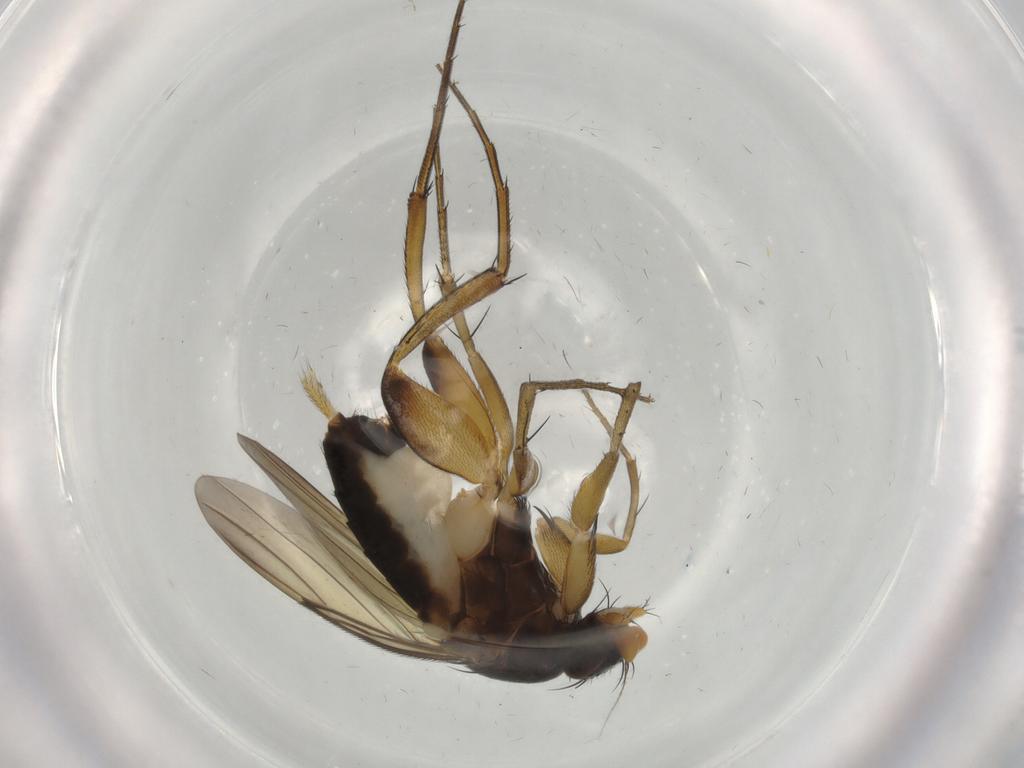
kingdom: Animalia
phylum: Arthropoda
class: Insecta
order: Diptera
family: Phoridae
